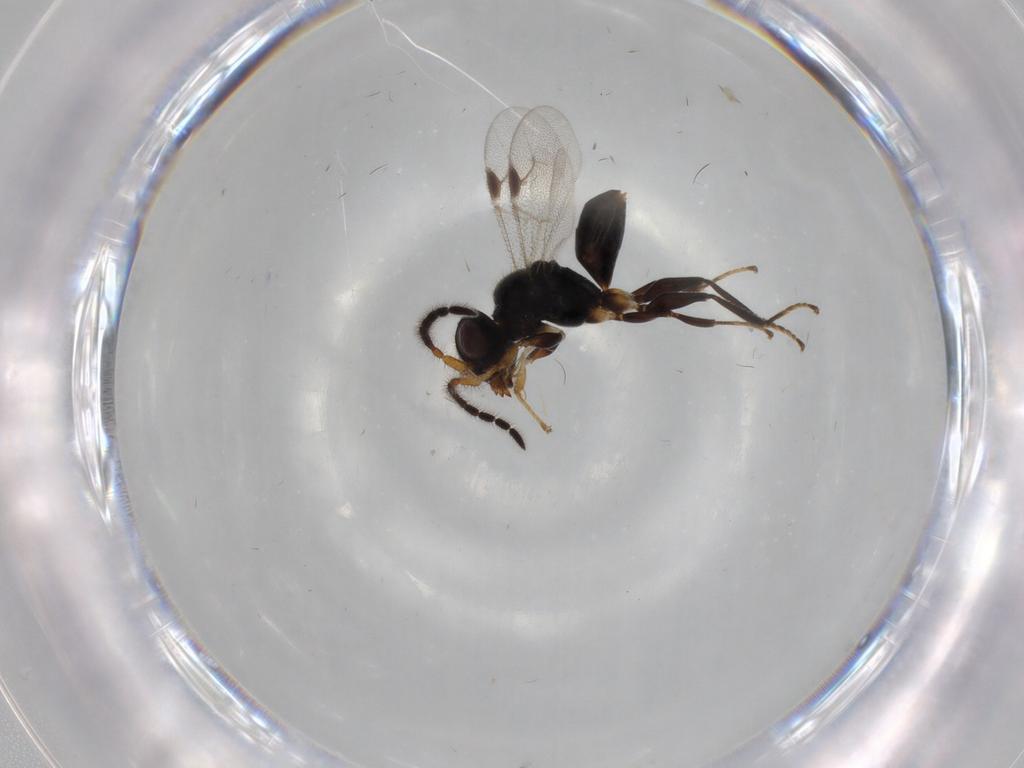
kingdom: Animalia
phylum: Arthropoda
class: Insecta
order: Hymenoptera
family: Dryinidae
